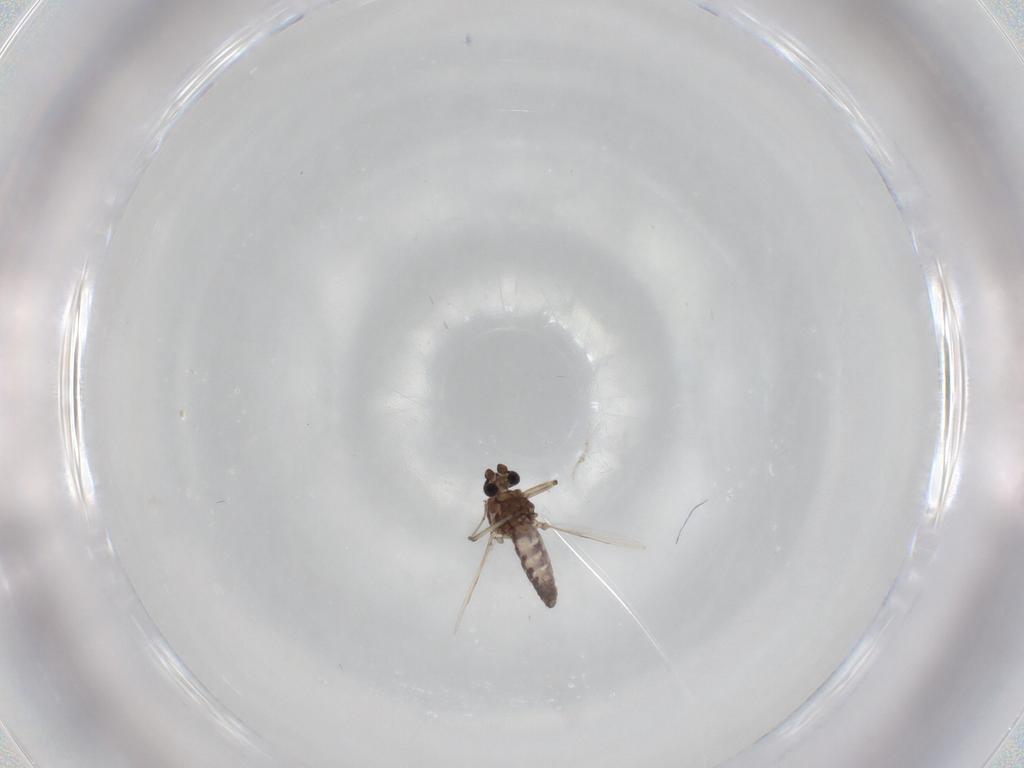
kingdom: Animalia
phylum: Arthropoda
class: Insecta
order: Diptera
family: Ceratopogonidae
